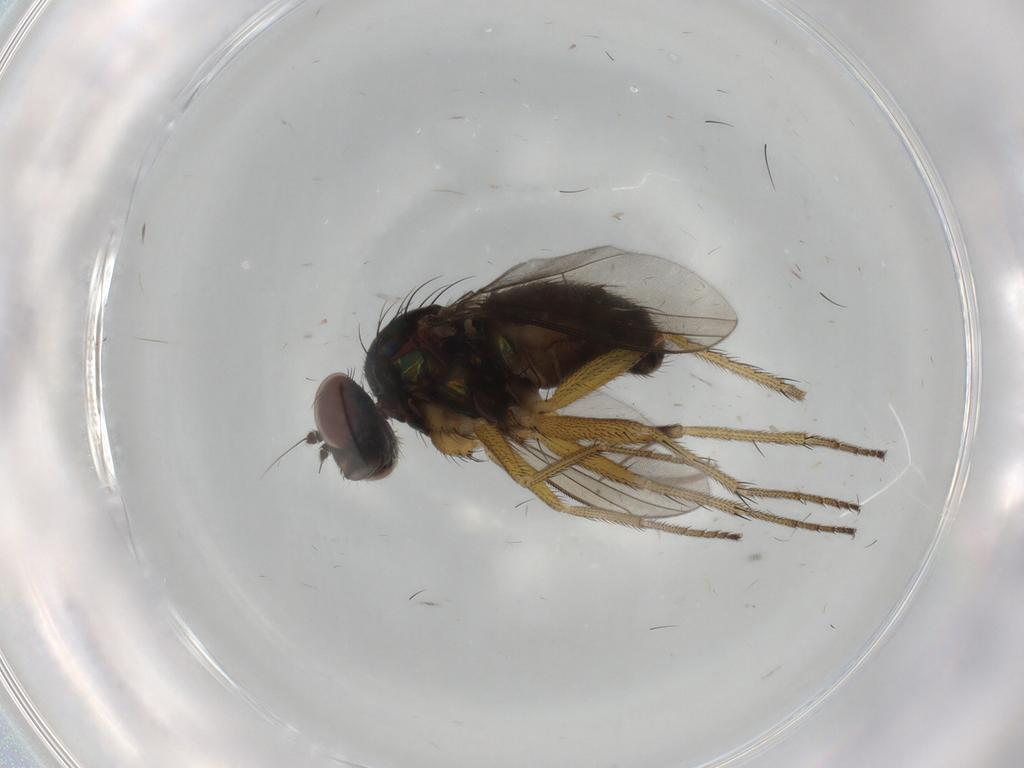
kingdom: Animalia
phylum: Arthropoda
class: Insecta
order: Diptera
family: Dolichopodidae
